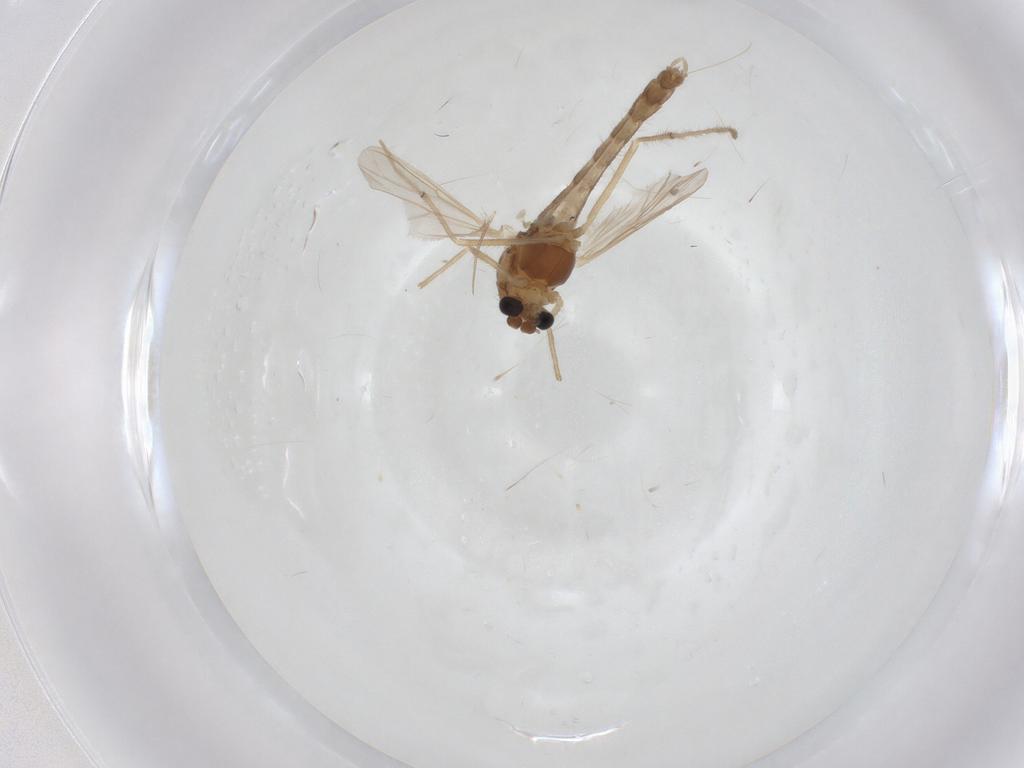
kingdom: Animalia
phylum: Arthropoda
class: Insecta
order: Diptera
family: Chironomidae
